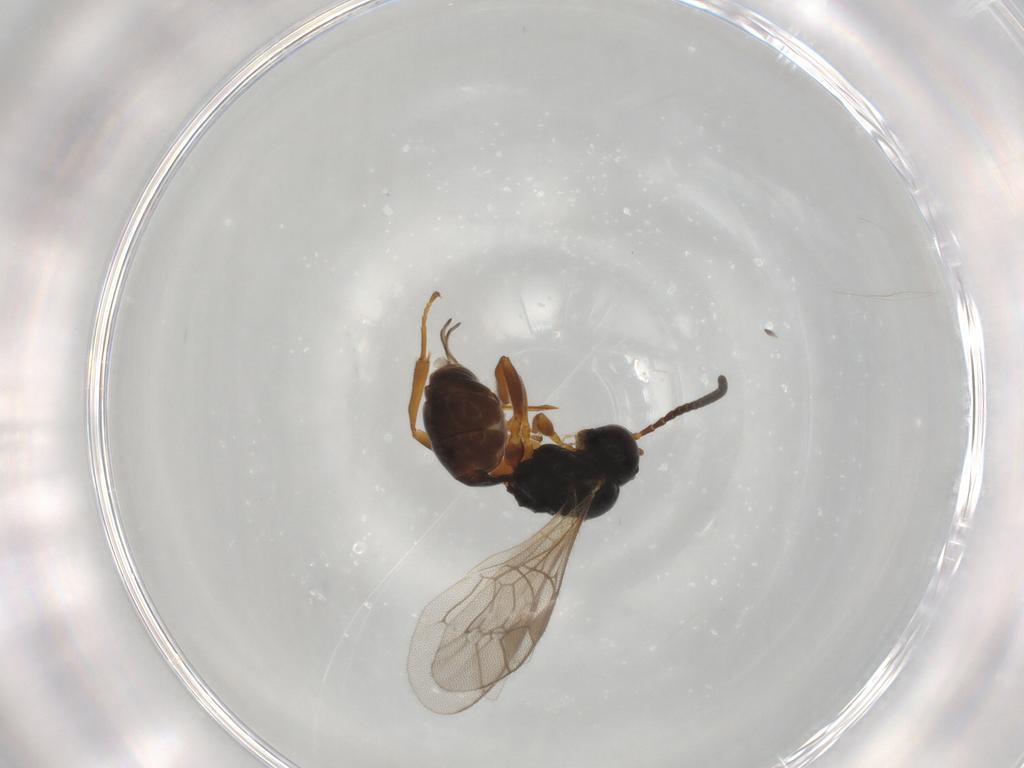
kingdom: Animalia
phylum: Arthropoda
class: Insecta
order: Hymenoptera
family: Ichneumonidae
